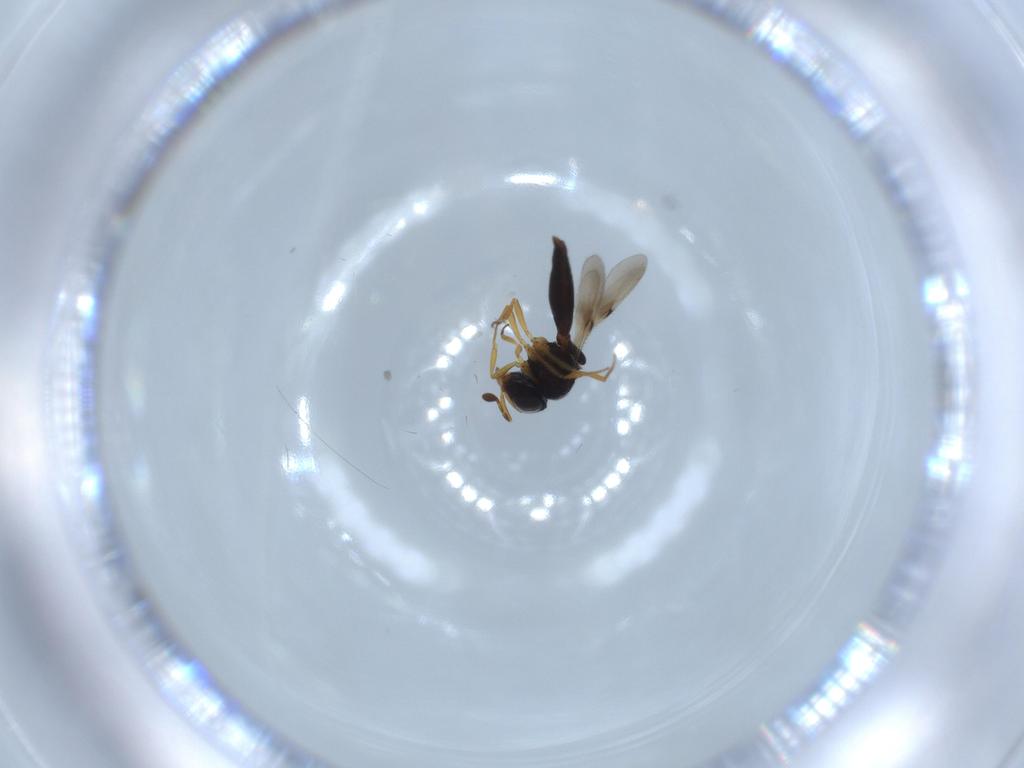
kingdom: Animalia
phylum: Arthropoda
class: Insecta
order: Hymenoptera
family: Scelionidae
